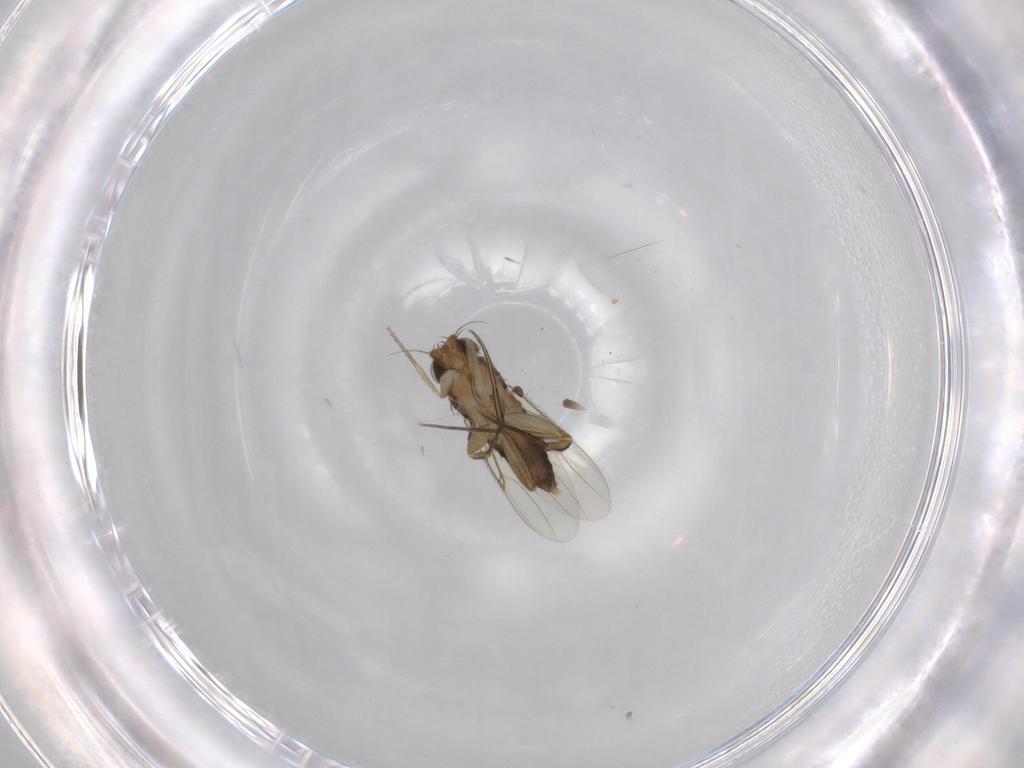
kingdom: Animalia
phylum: Arthropoda
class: Insecta
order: Diptera
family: Phoridae
